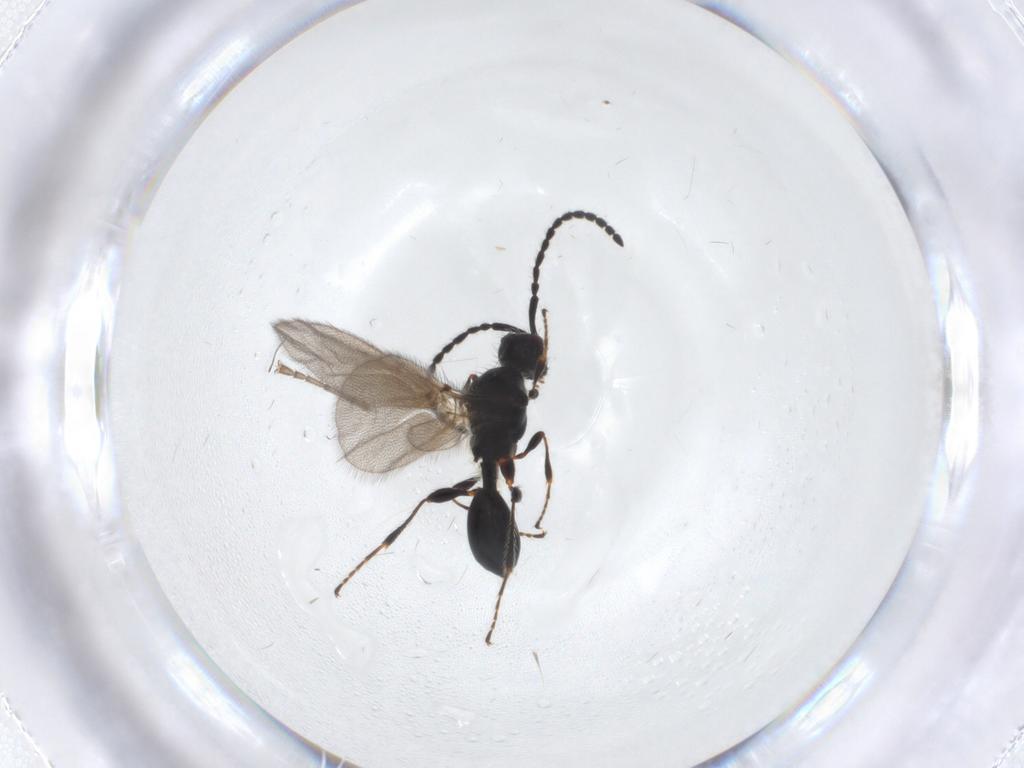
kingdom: Animalia
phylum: Arthropoda
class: Insecta
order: Hymenoptera
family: Diapriidae
